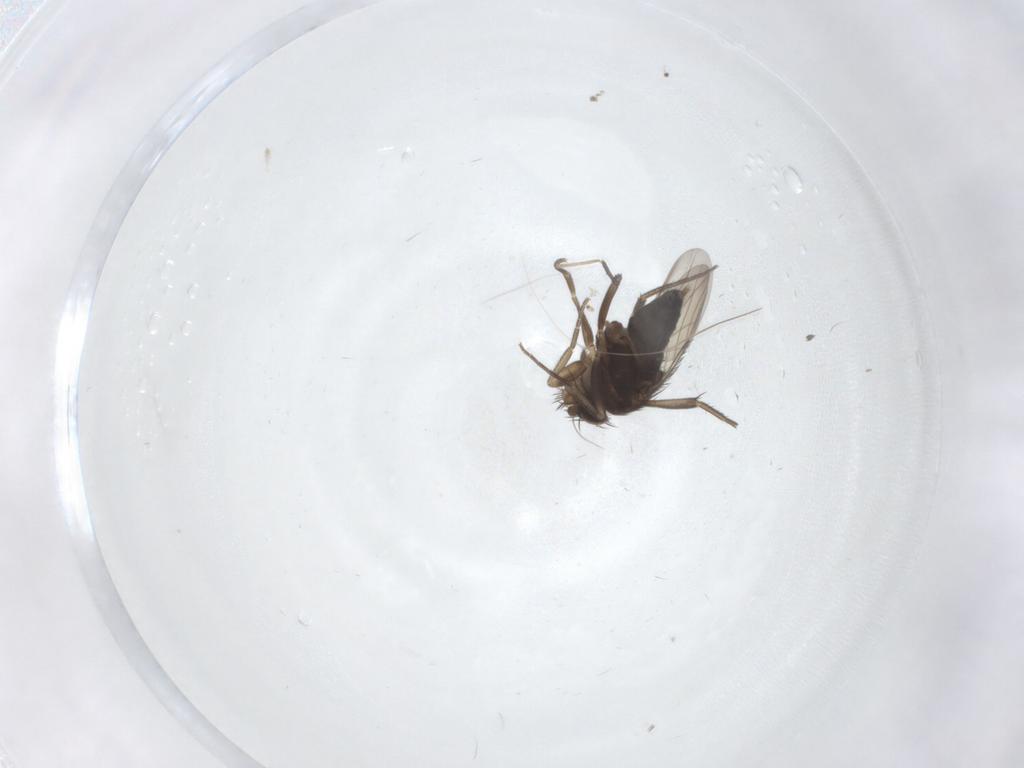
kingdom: Animalia
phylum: Arthropoda
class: Insecta
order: Diptera
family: Phoridae
